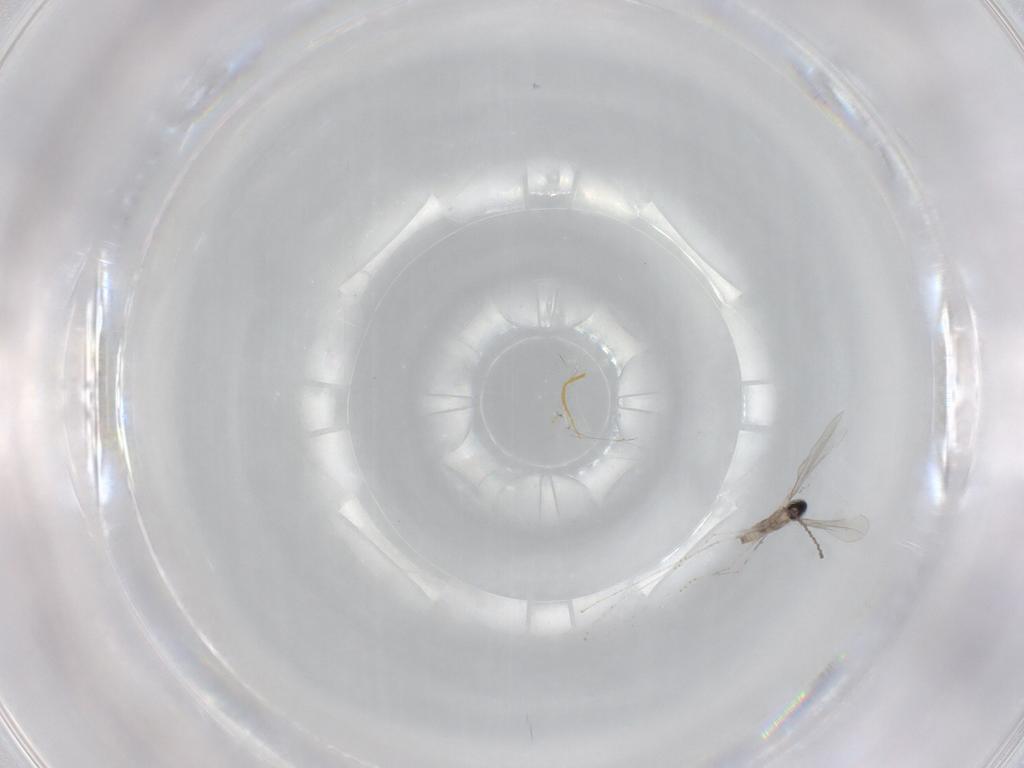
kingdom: Animalia
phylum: Arthropoda
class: Insecta
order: Diptera
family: Cecidomyiidae
